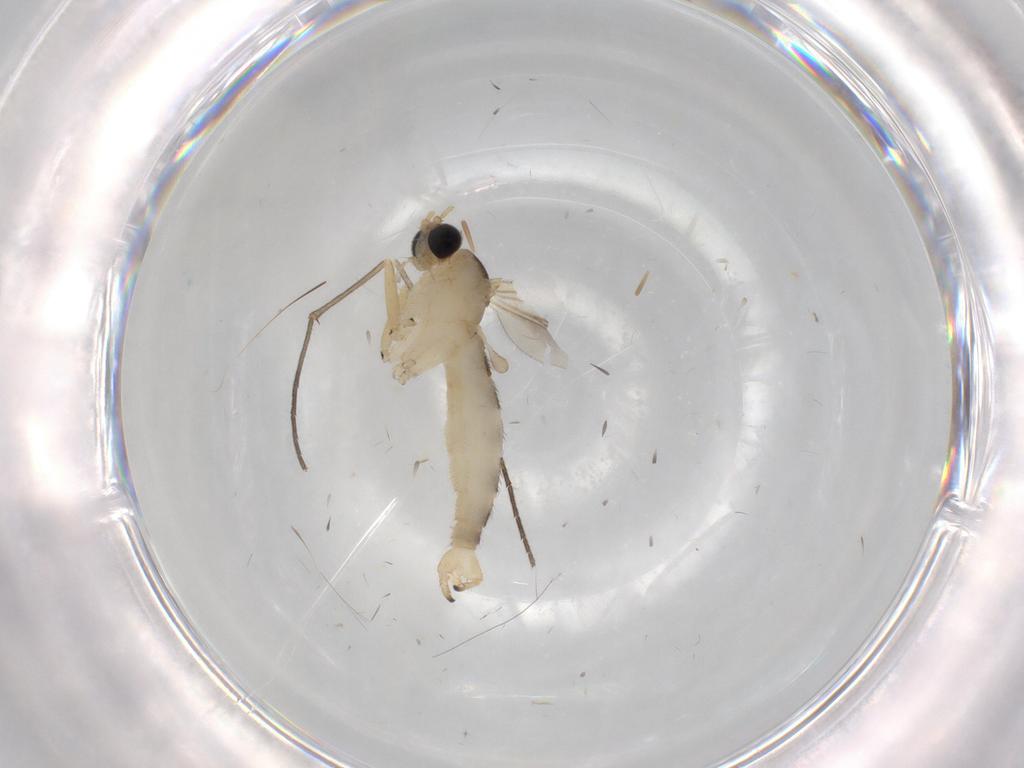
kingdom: Animalia
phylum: Arthropoda
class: Insecta
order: Diptera
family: Sciaridae
